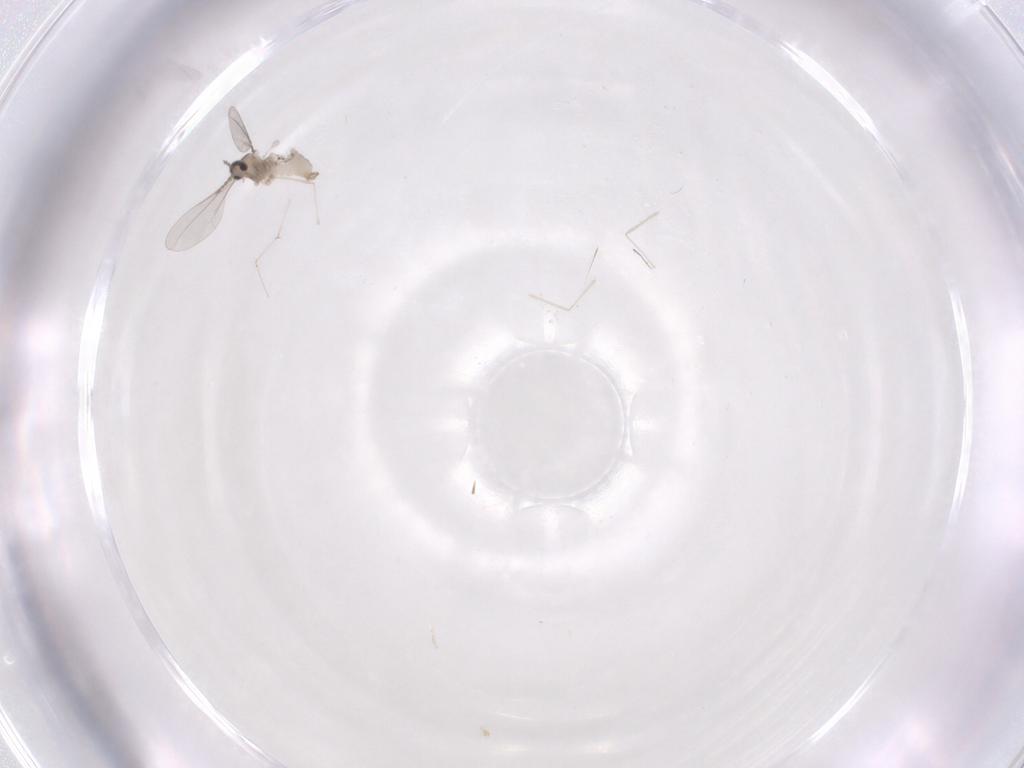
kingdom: Animalia
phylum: Arthropoda
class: Insecta
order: Diptera
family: Cecidomyiidae
